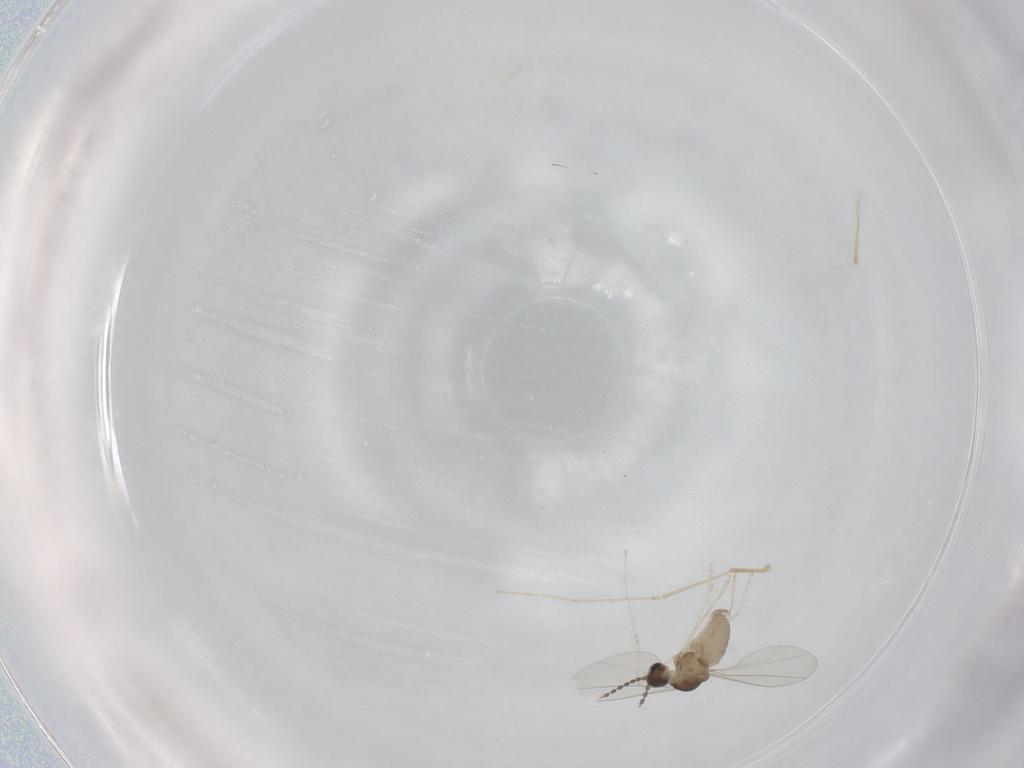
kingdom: Animalia
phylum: Arthropoda
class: Insecta
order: Diptera
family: Cecidomyiidae
